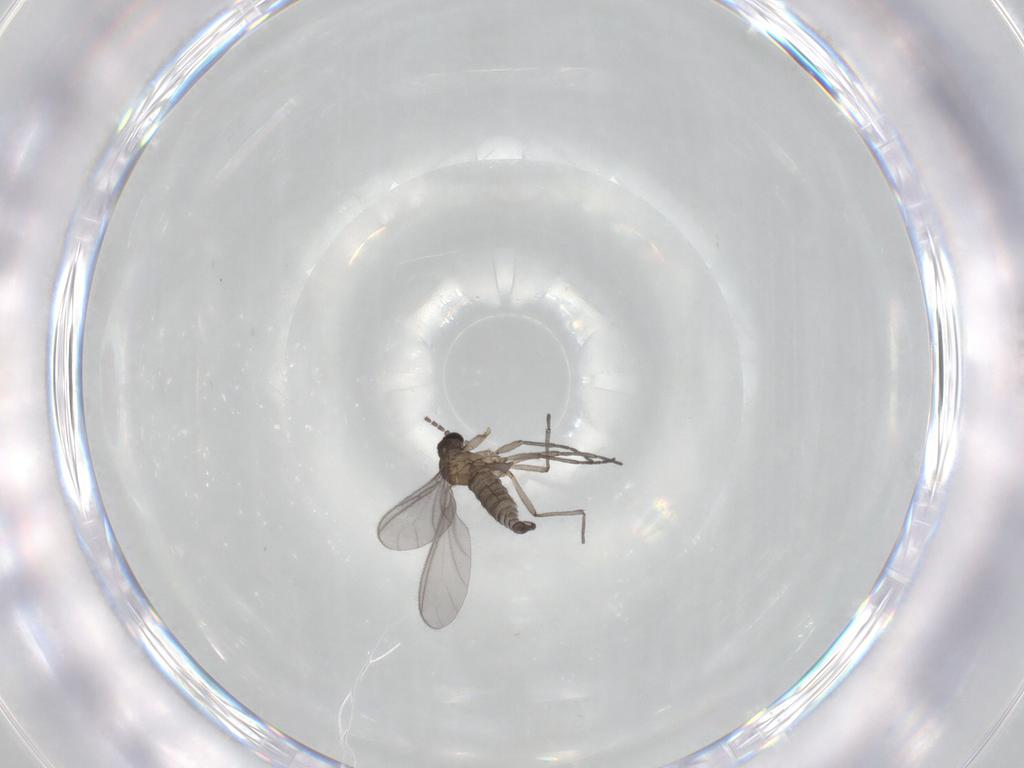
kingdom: Animalia
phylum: Arthropoda
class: Insecta
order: Diptera
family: Sciaridae
